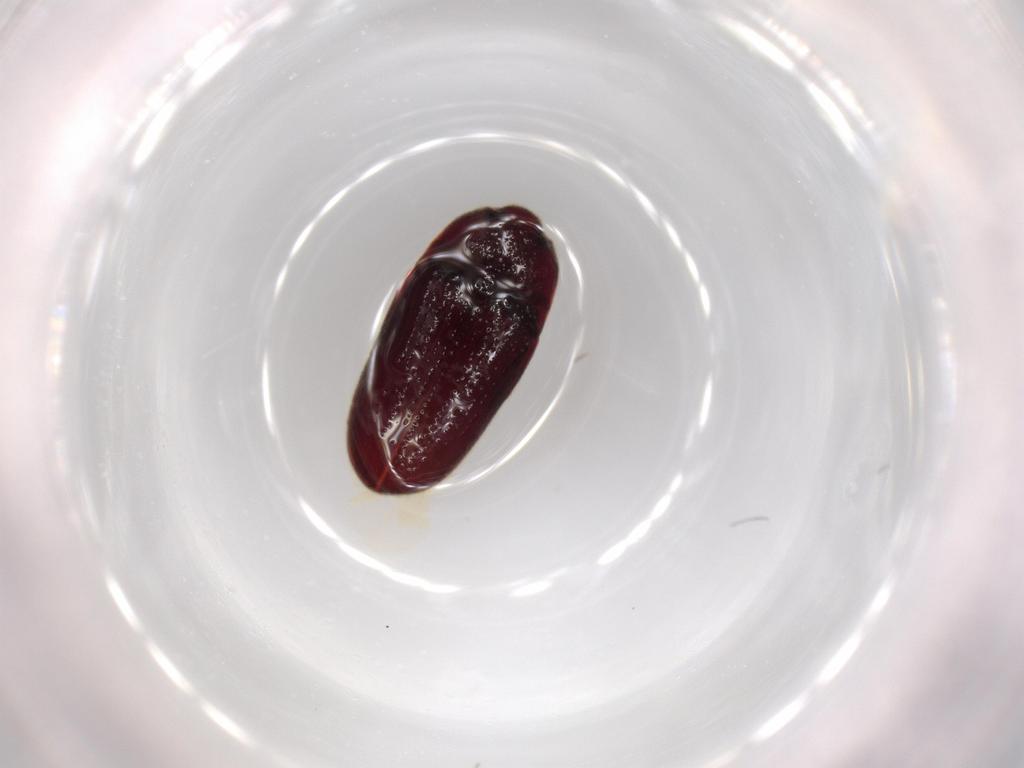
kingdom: Animalia
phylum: Arthropoda
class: Insecta
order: Coleoptera
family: Throscidae
